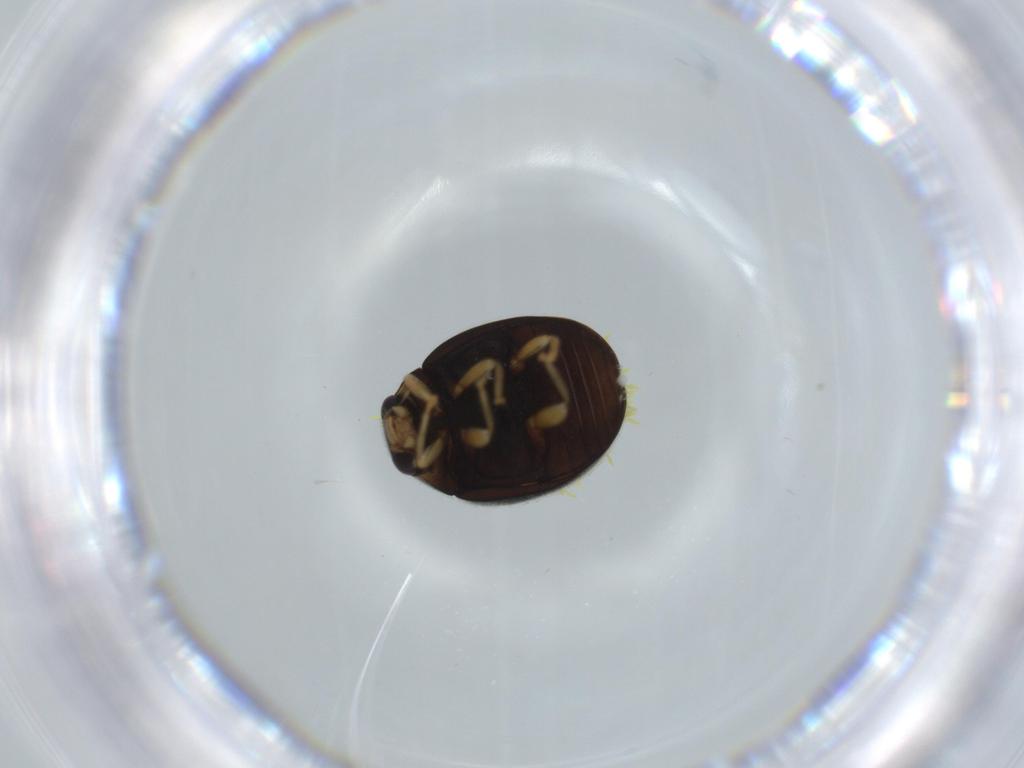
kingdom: Animalia
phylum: Arthropoda
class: Insecta
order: Coleoptera
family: Coccinellidae
